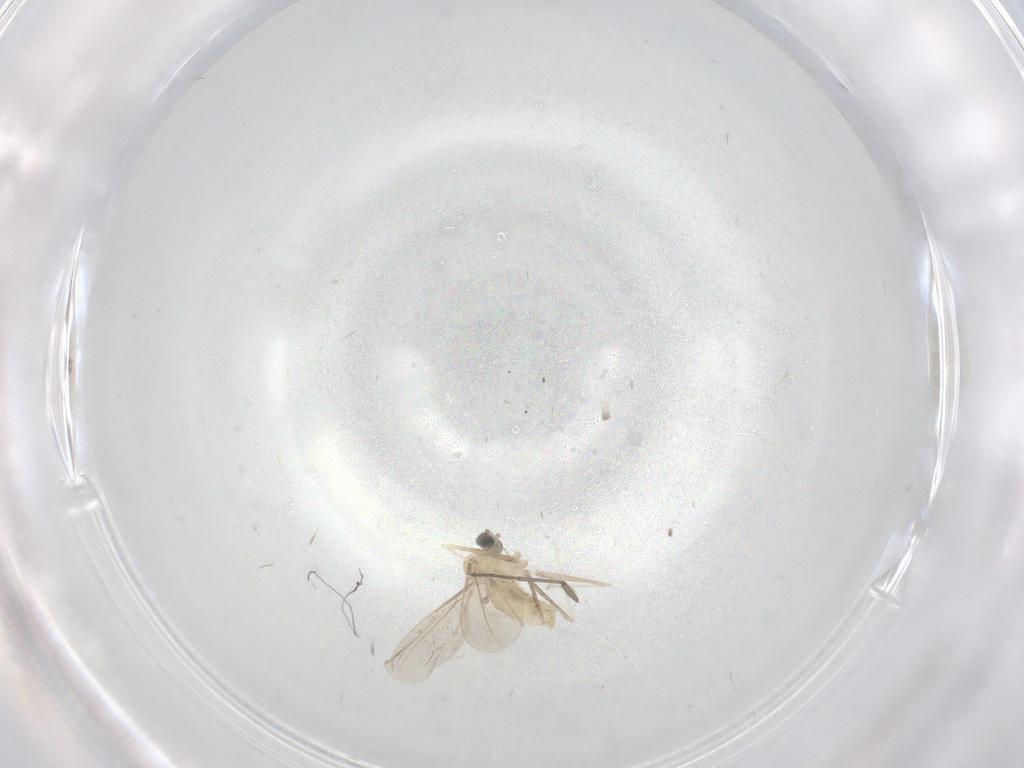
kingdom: Animalia
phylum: Arthropoda
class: Insecta
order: Diptera
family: Cecidomyiidae
